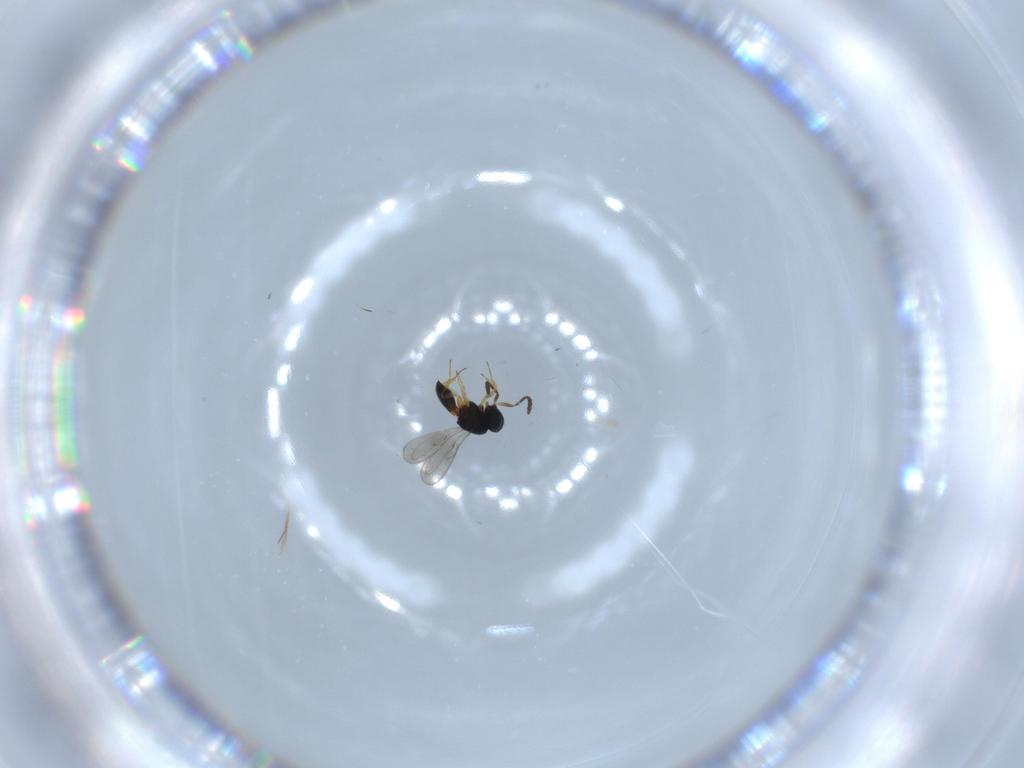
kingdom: Animalia
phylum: Arthropoda
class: Insecta
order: Hymenoptera
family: Scelionidae
